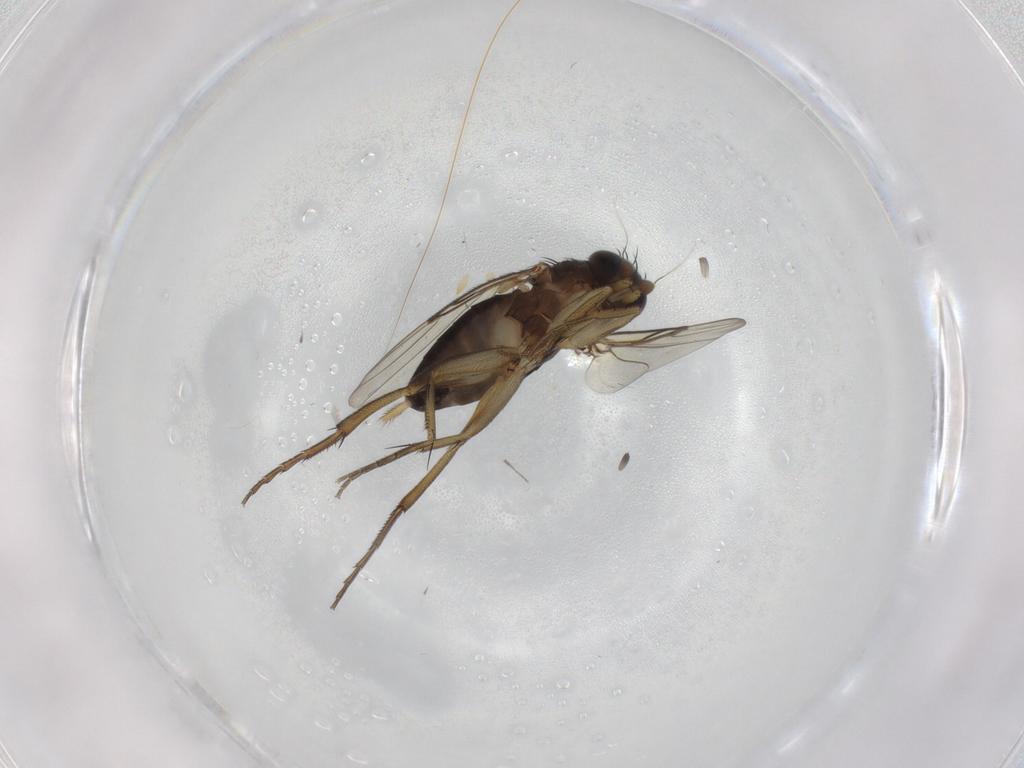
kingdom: Animalia
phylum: Arthropoda
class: Insecta
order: Diptera
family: Phoridae
